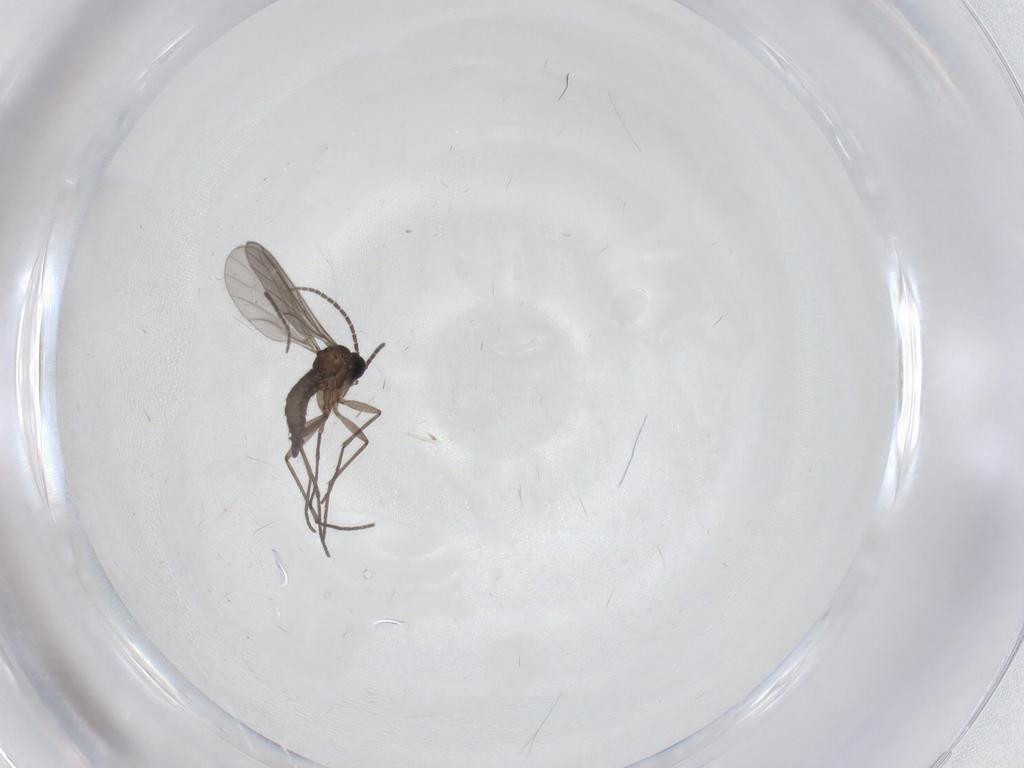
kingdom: Animalia
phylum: Arthropoda
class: Insecta
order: Diptera
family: Sciaridae
